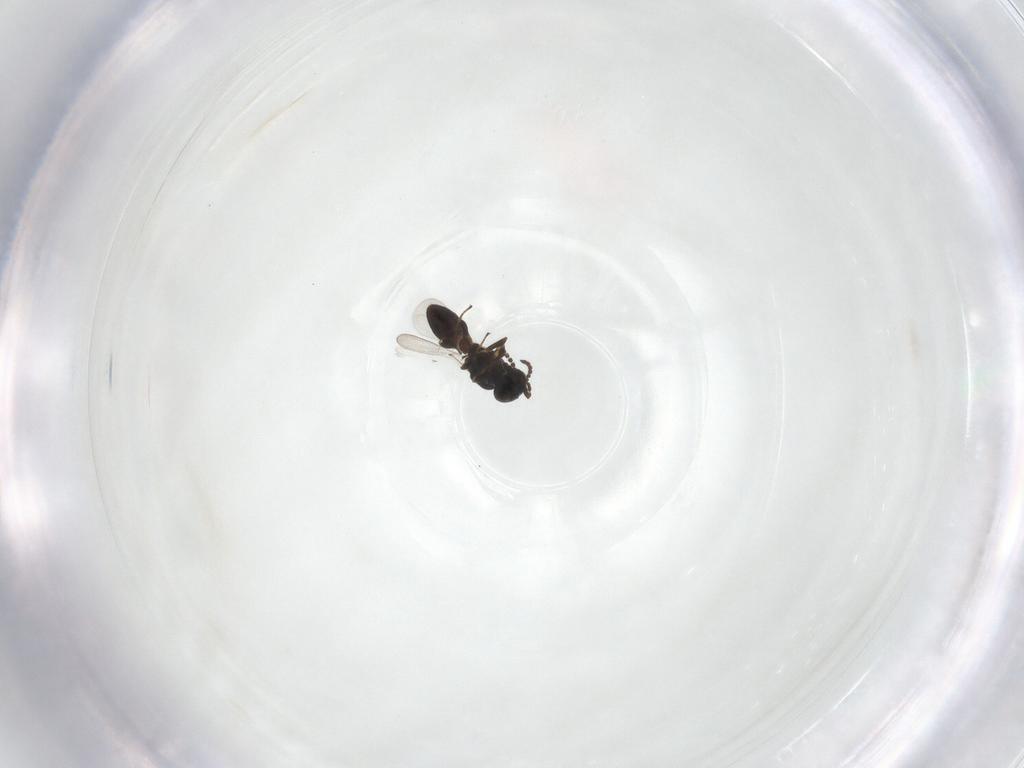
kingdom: Animalia
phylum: Arthropoda
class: Insecta
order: Hymenoptera
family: Platygastridae
